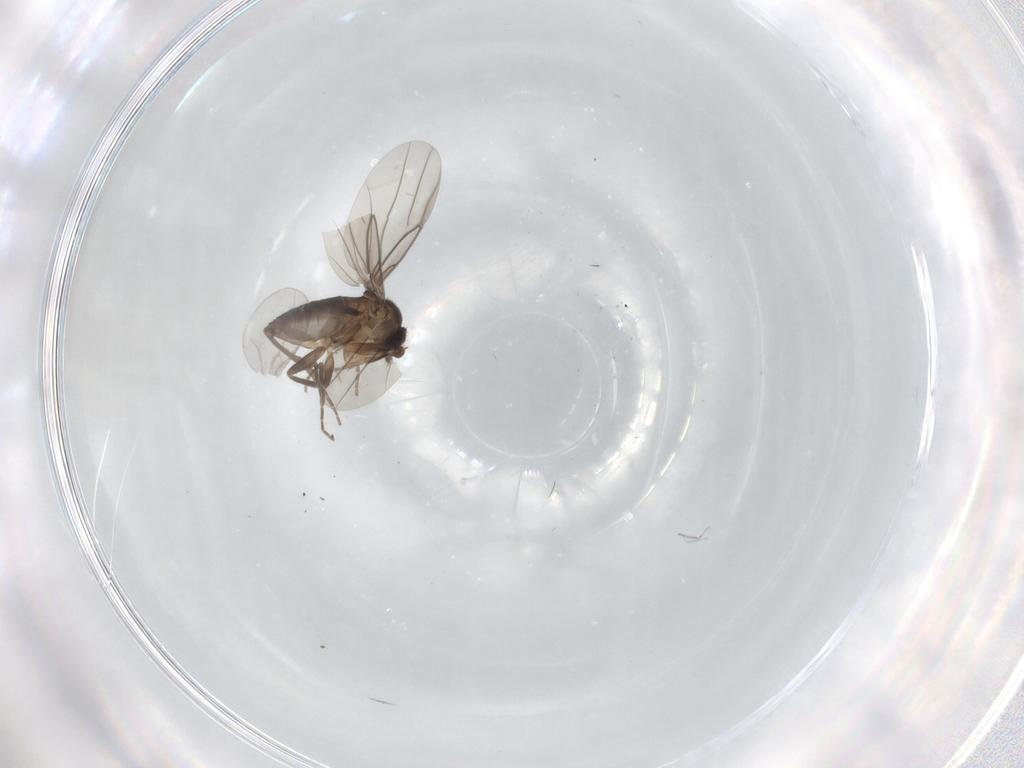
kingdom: Animalia
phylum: Arthropoda
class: Insecta
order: Diptera
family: Cecidomyiidae
